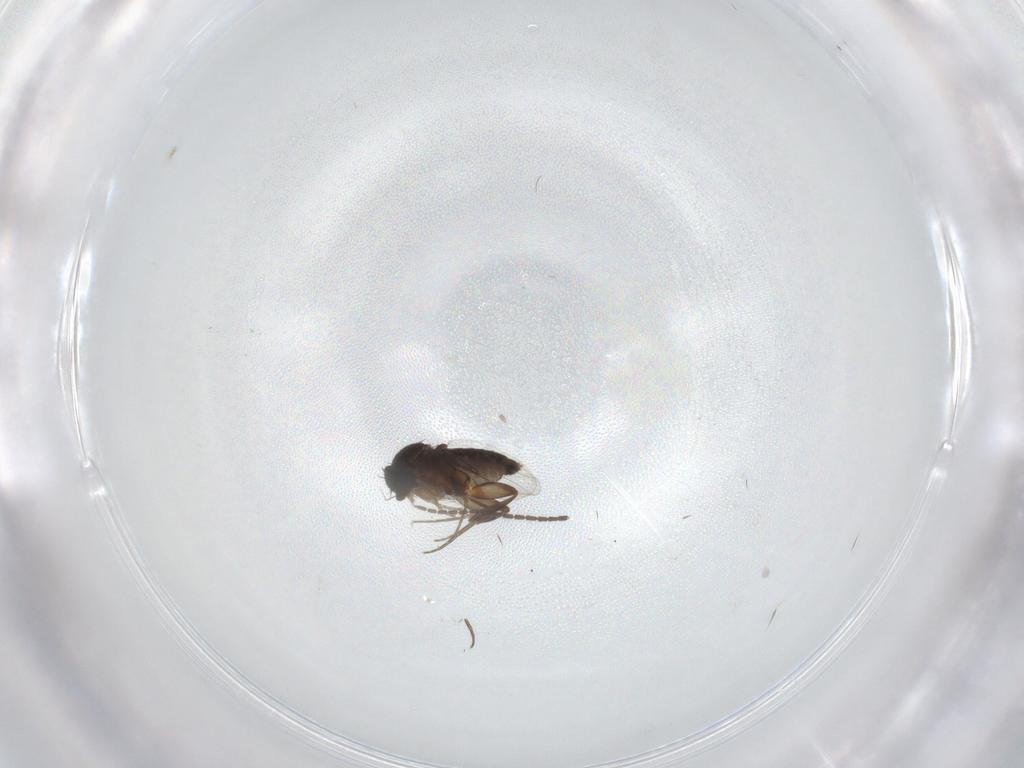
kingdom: Animalia
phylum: Arthropoda
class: Insecta
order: Diptera
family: Phoridae
